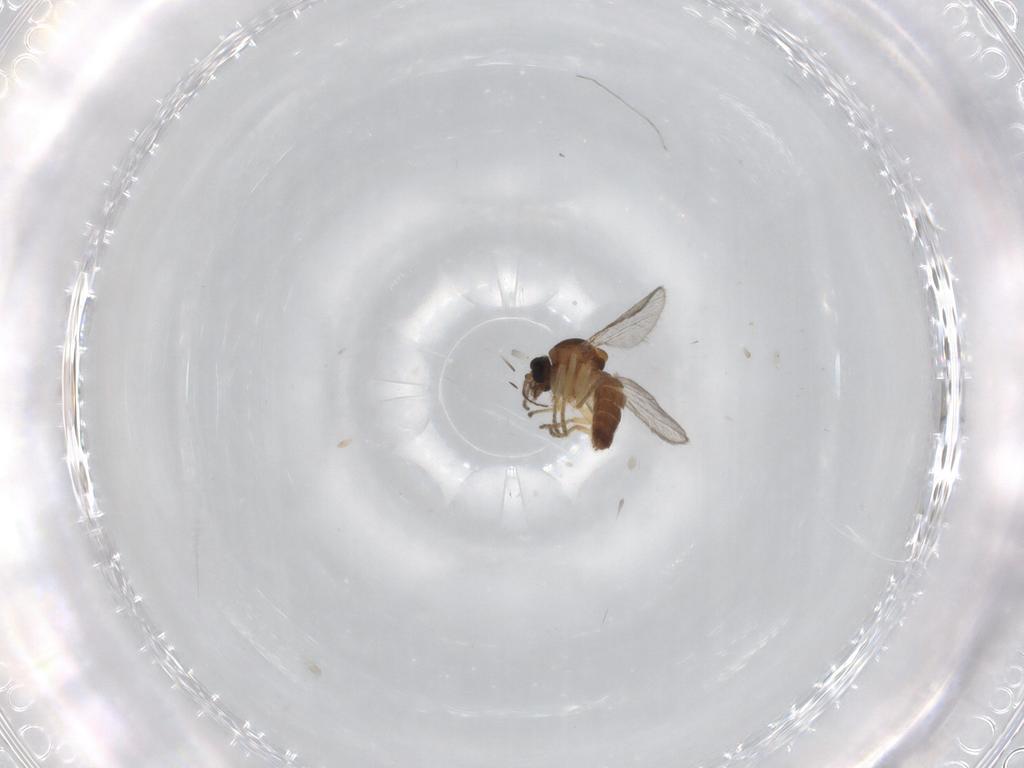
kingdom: Animalia
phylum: Arthropoda
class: Insecta
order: Diptera
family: Ceratopogonidae
